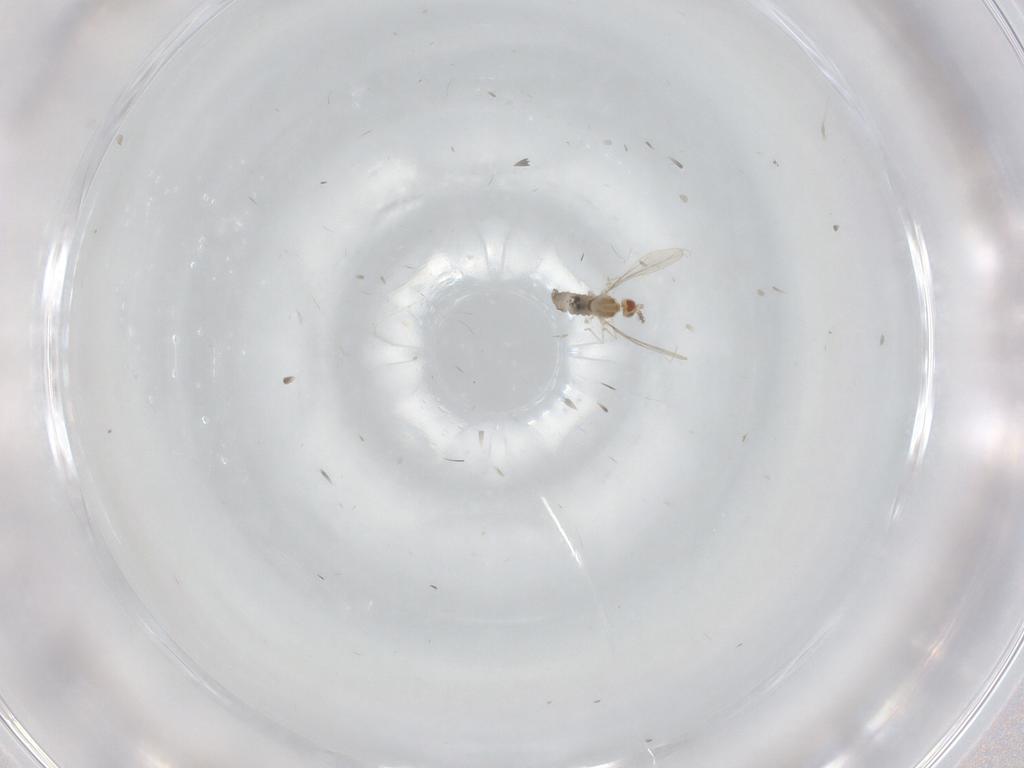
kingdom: Animalia
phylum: Arthropoda
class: Insecta
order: Diptera
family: Cecidomyiidae
